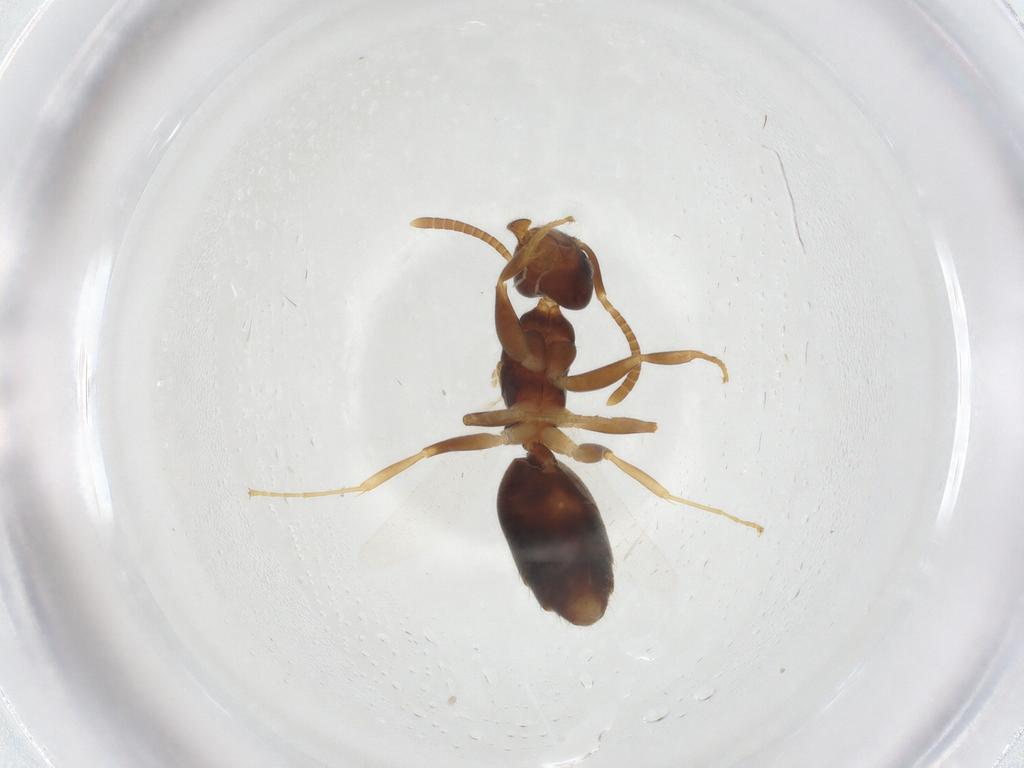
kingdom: Animalia
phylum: Arthropoda
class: Insecta
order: Hymenoptera
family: Formicidae
